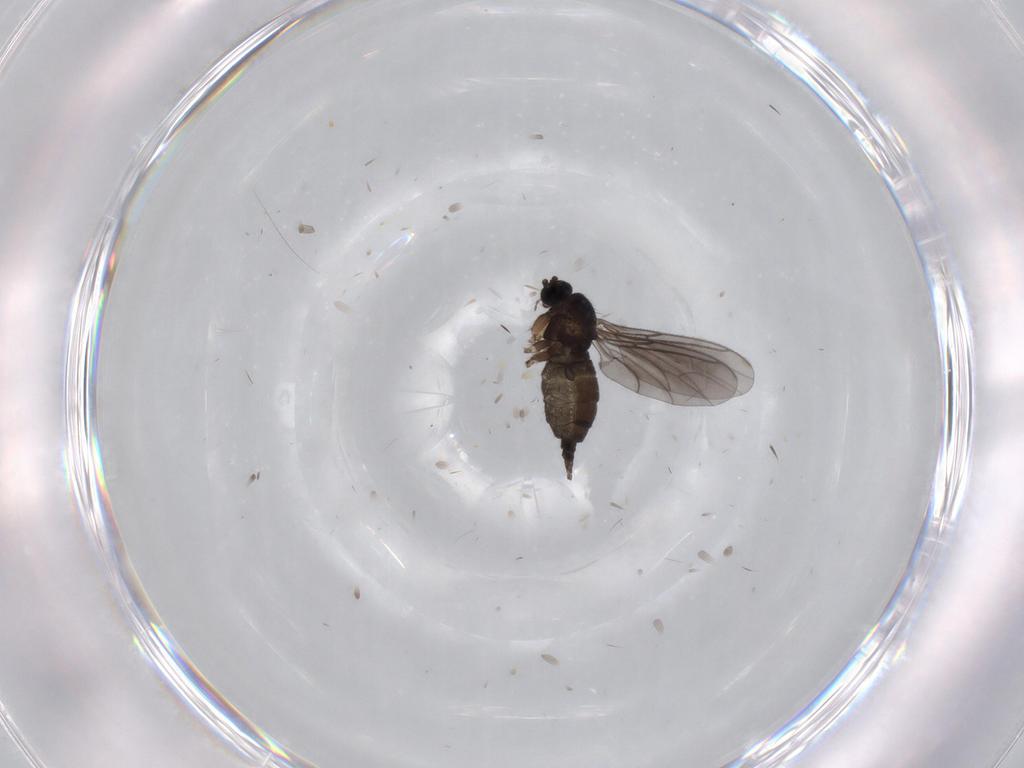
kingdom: Animalia
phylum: Arthropoda
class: Insecta
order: Diptera
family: Sciaridae
